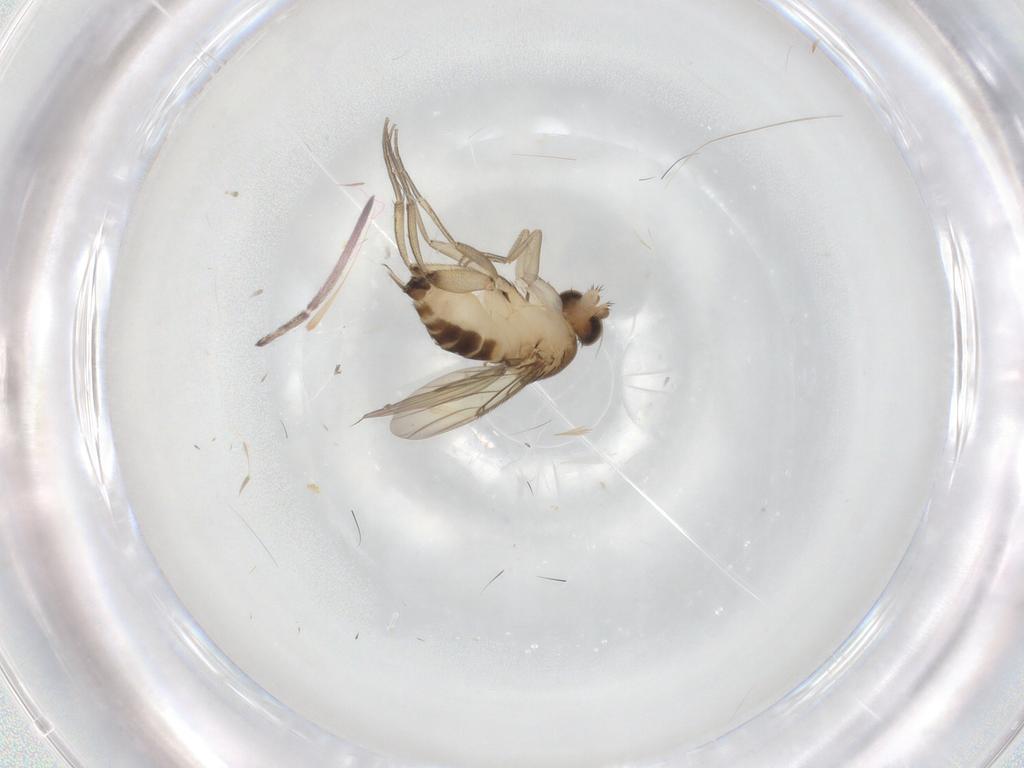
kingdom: Animalia
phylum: Arthropoda
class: Insecta
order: Diptera
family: Phoridae
